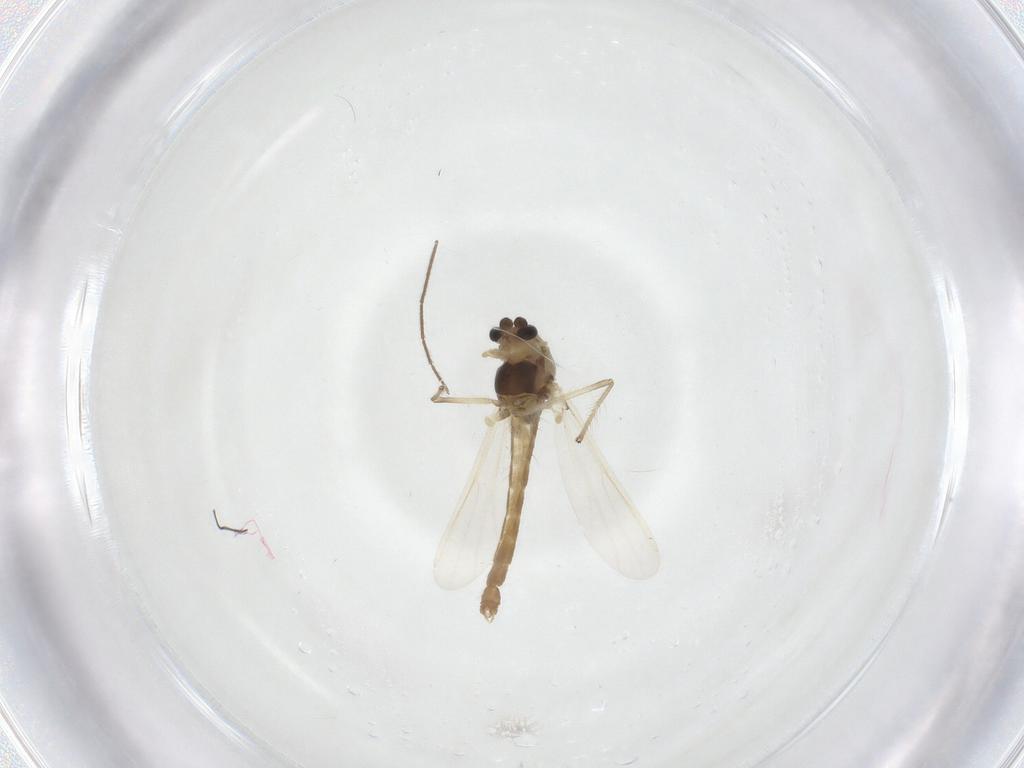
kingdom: Animalia
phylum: Arthropoda
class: Insecta
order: Diptera
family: Chironomidae
